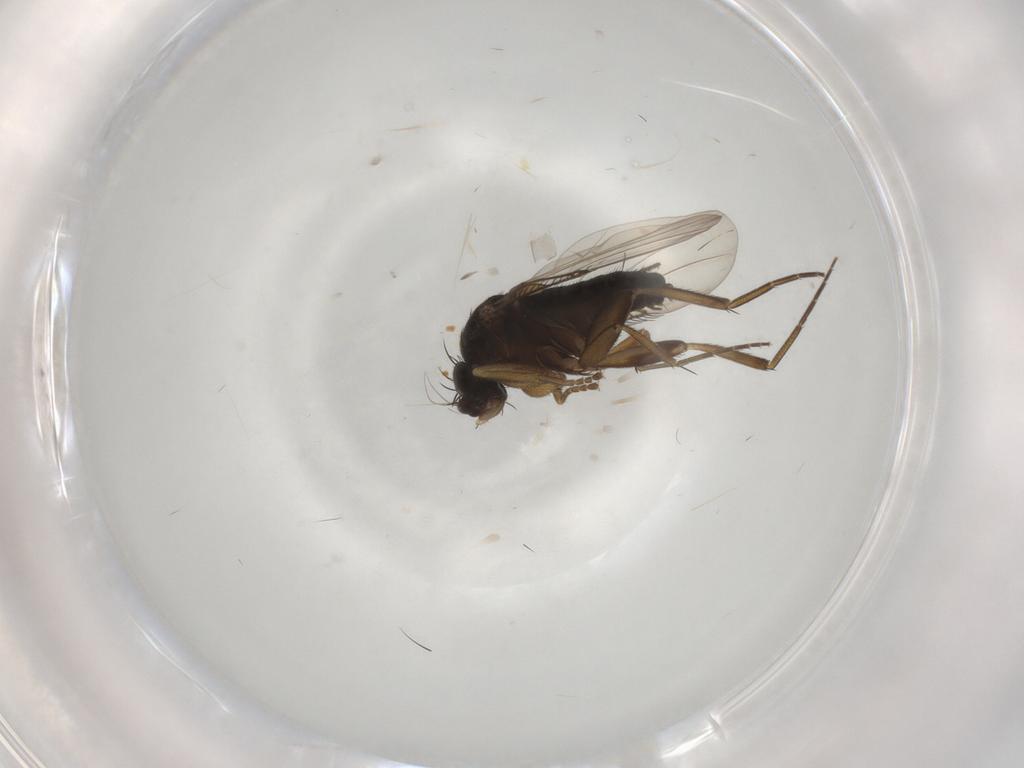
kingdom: Animalia
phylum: Arthropoda
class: Insecta
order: Diptera
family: Phoridae
